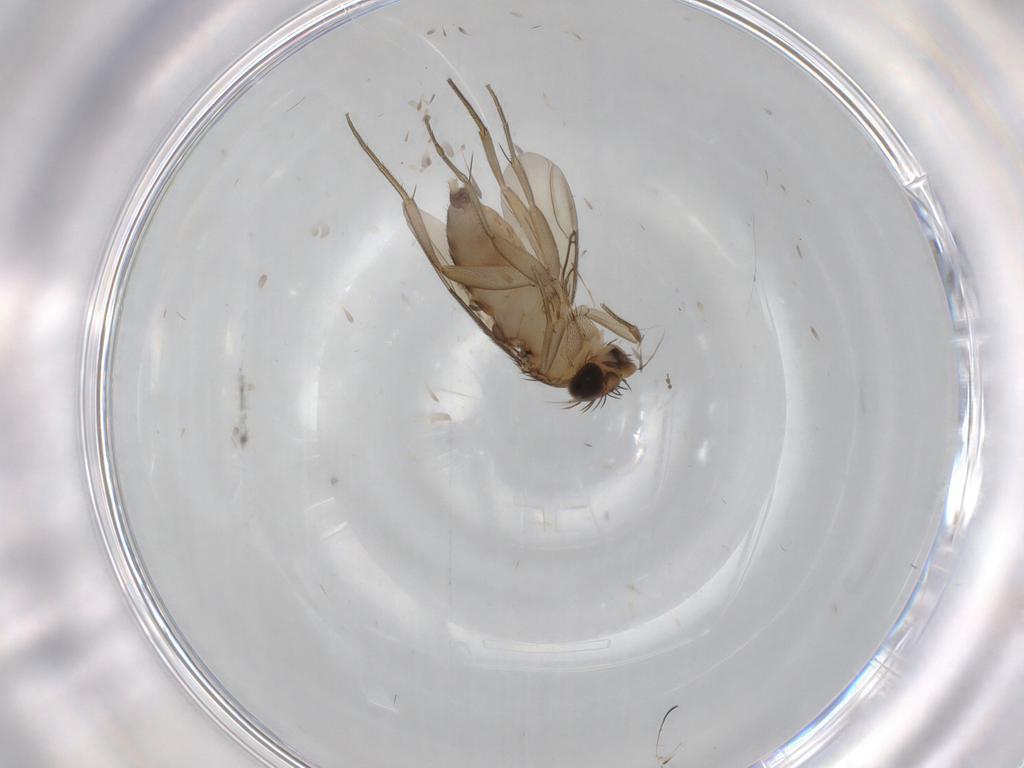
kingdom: Animalia
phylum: Arthropoda
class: Insecta
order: Diptera
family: Phoridae
